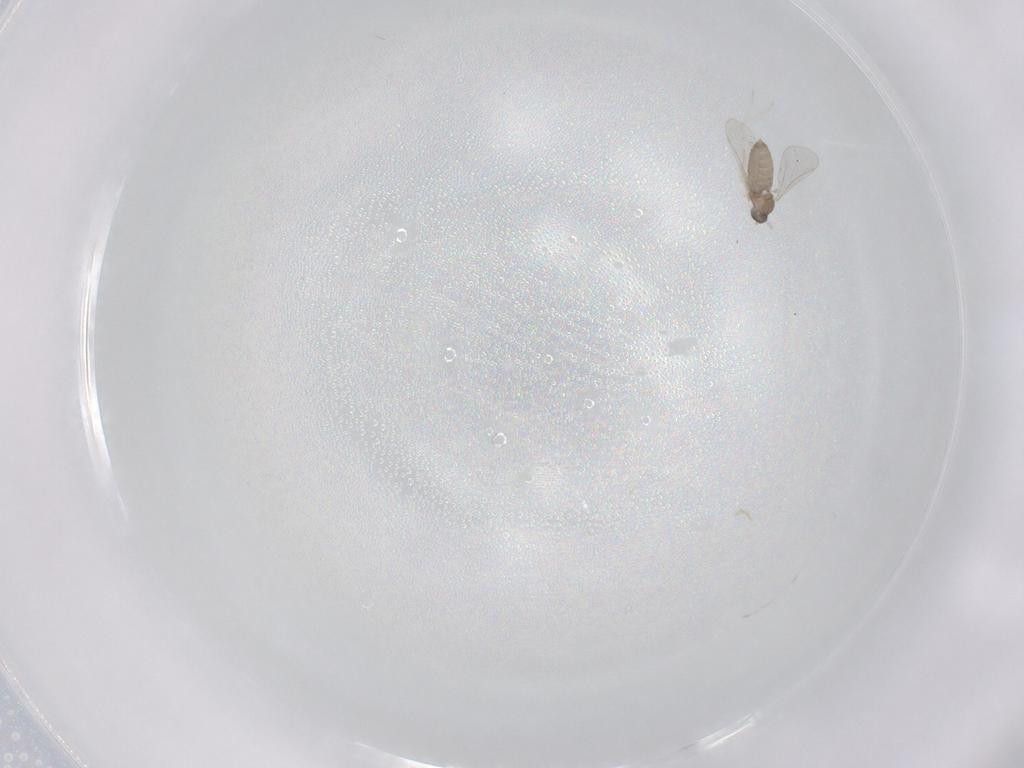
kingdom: Animalia
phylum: Arthropoda
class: Insecta
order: Diptera
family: Cecidomyiidae
